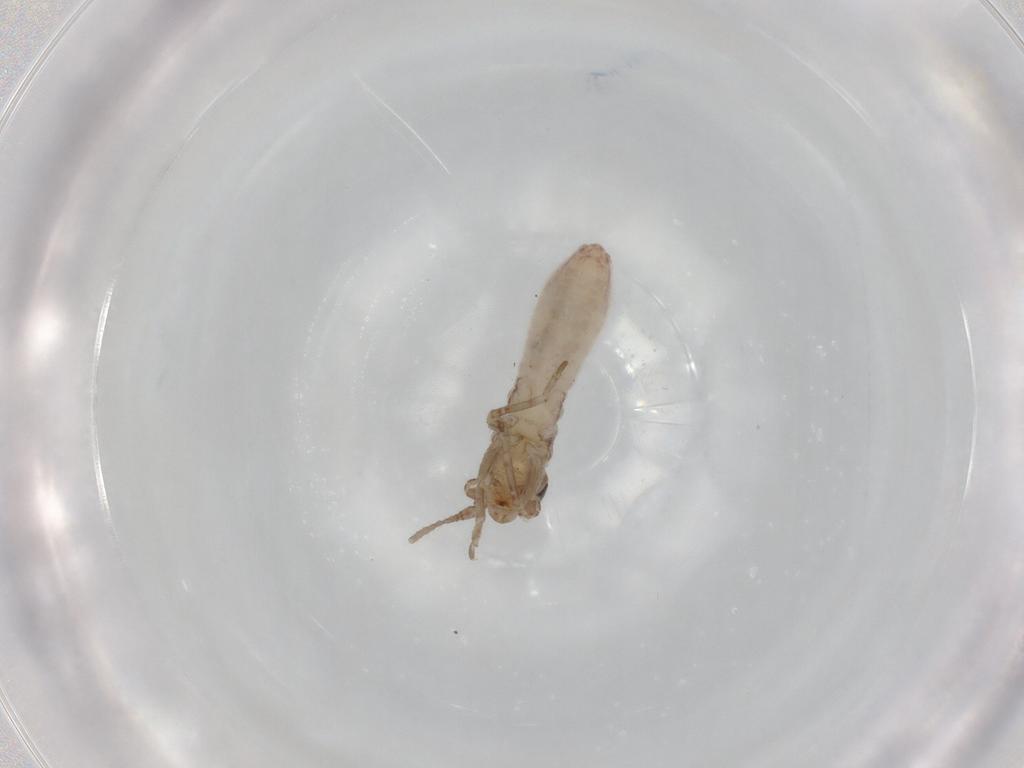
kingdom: Animalia
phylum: Arthropoda
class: Insecta
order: Orthoptera
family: Mogoplistidae
